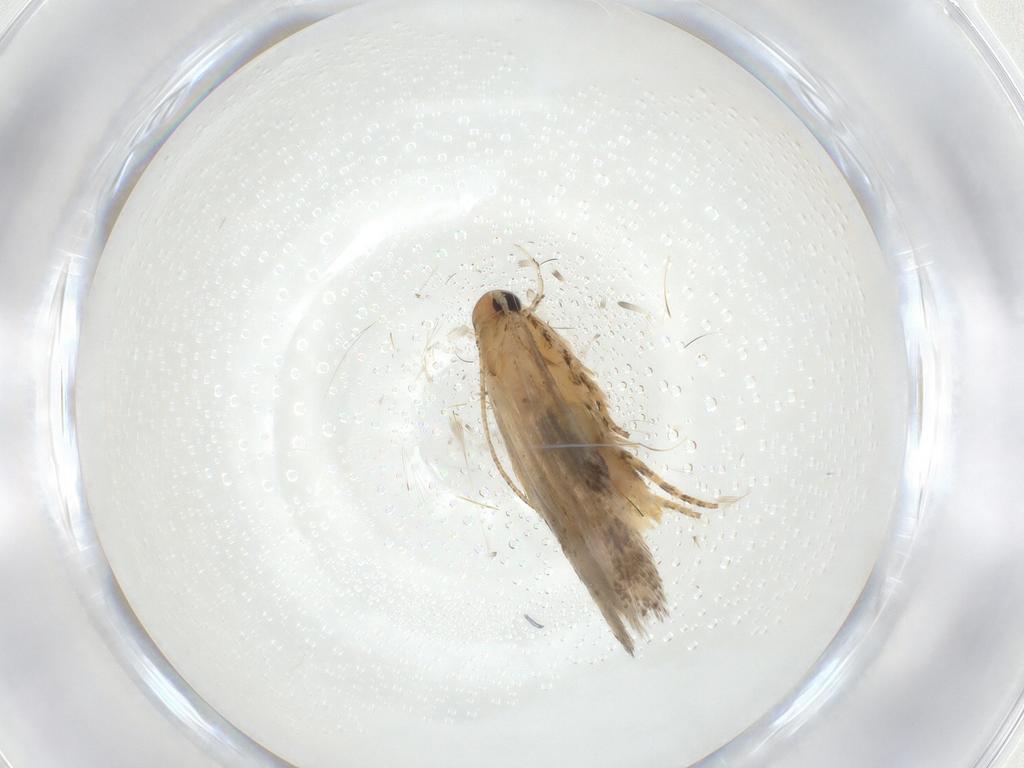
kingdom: Animalia
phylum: Arthropoda
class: Insecta
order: Lepidoptera
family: Gelechiidae
